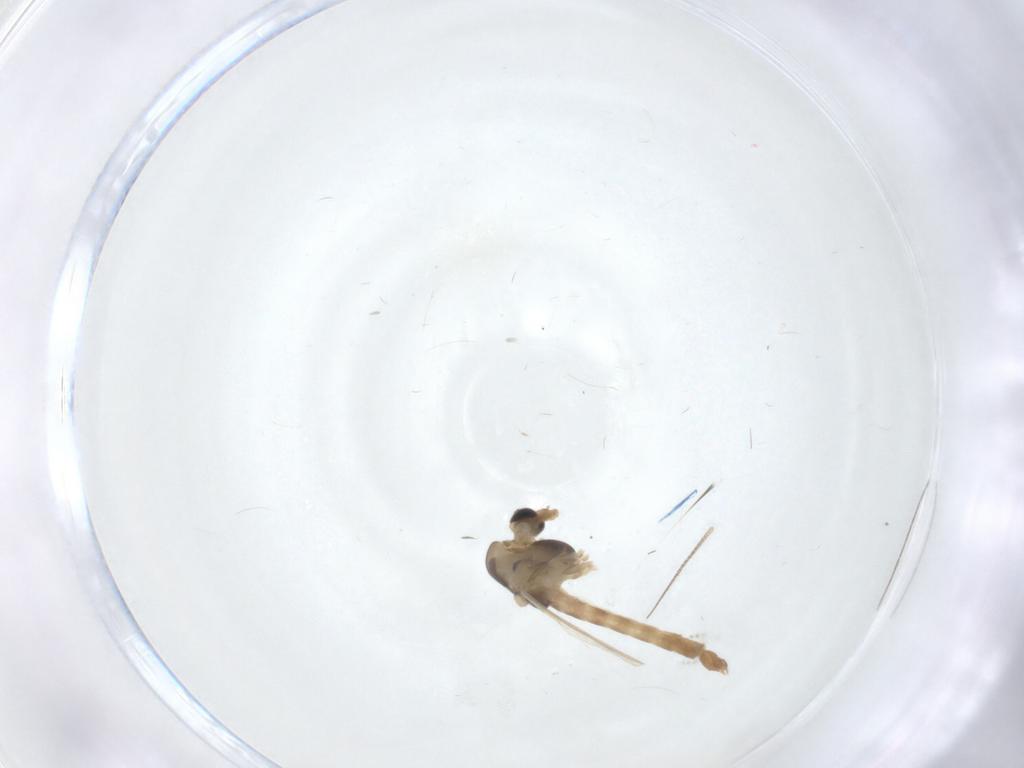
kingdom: Animalia
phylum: Arthropoda
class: Insecta
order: Diptera
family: Chironomidae
